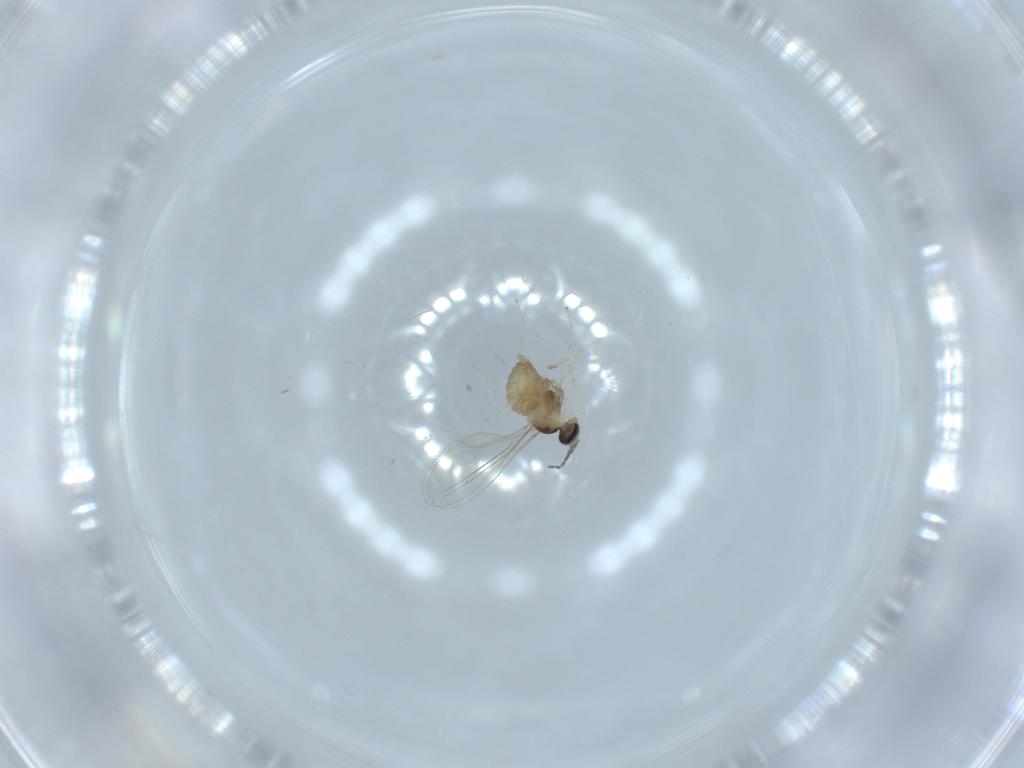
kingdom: Animalia
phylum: Arthropoda
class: Insecta
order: Diptera
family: Cecidomyiidae
